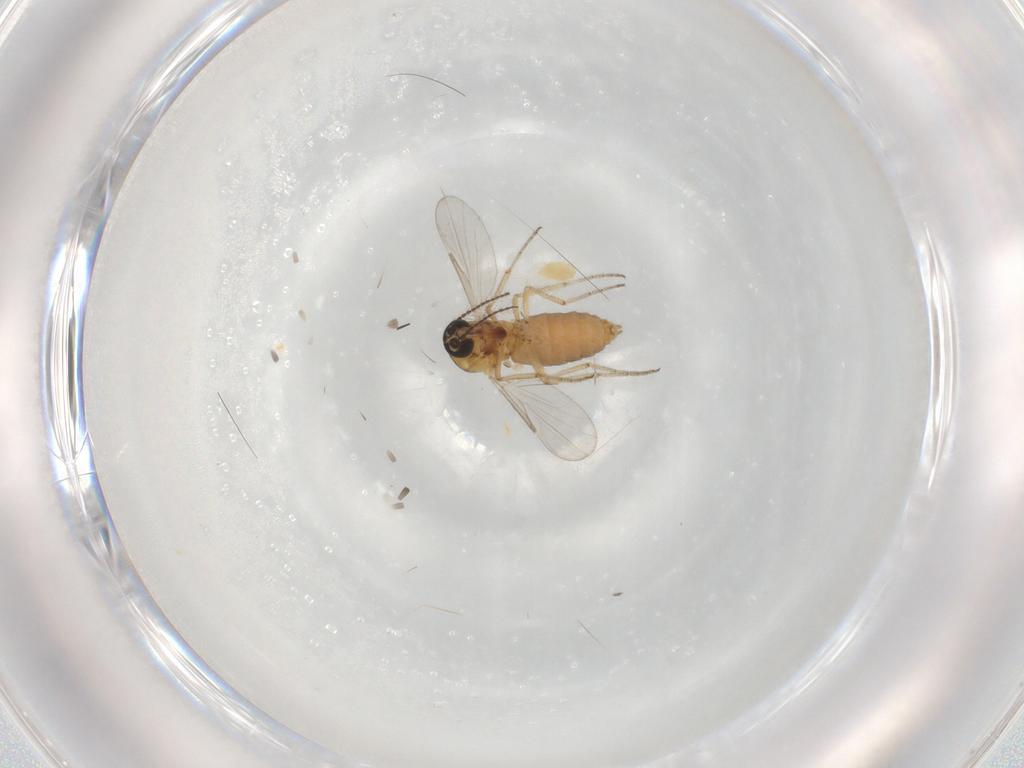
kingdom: Animalia
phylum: Arthropoda
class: Insecta
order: Diptera
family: Ceratopogonidae
